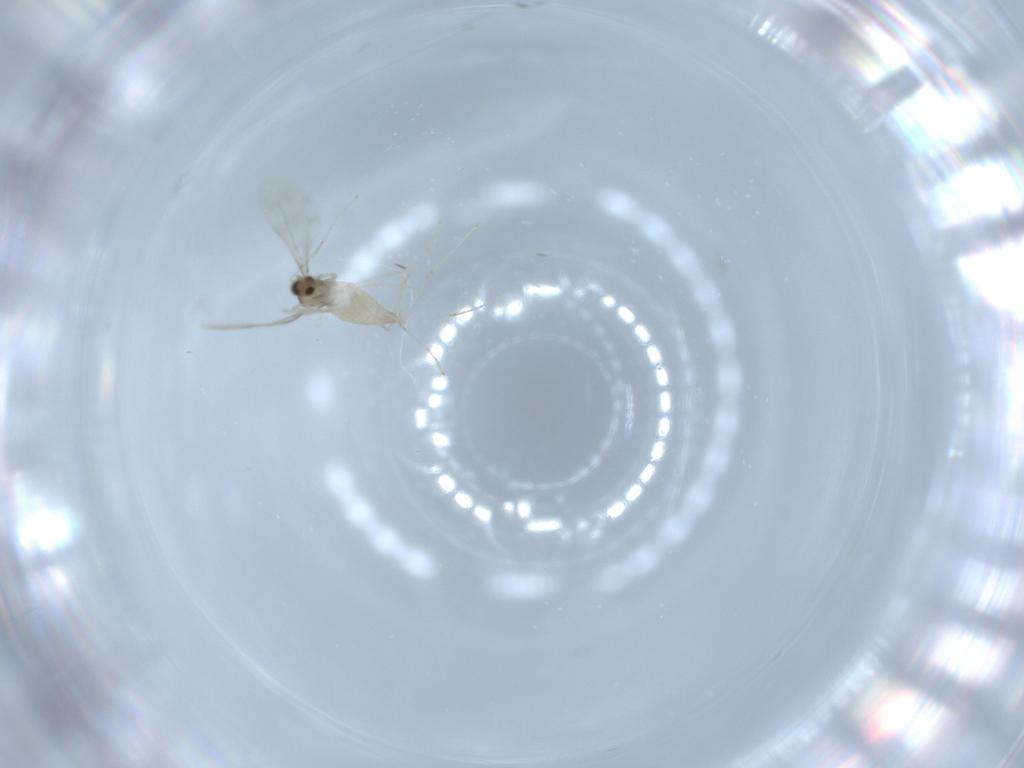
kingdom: Animalia
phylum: Arthropoda
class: Insecta
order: Diptera
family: Cecidomyiidae
